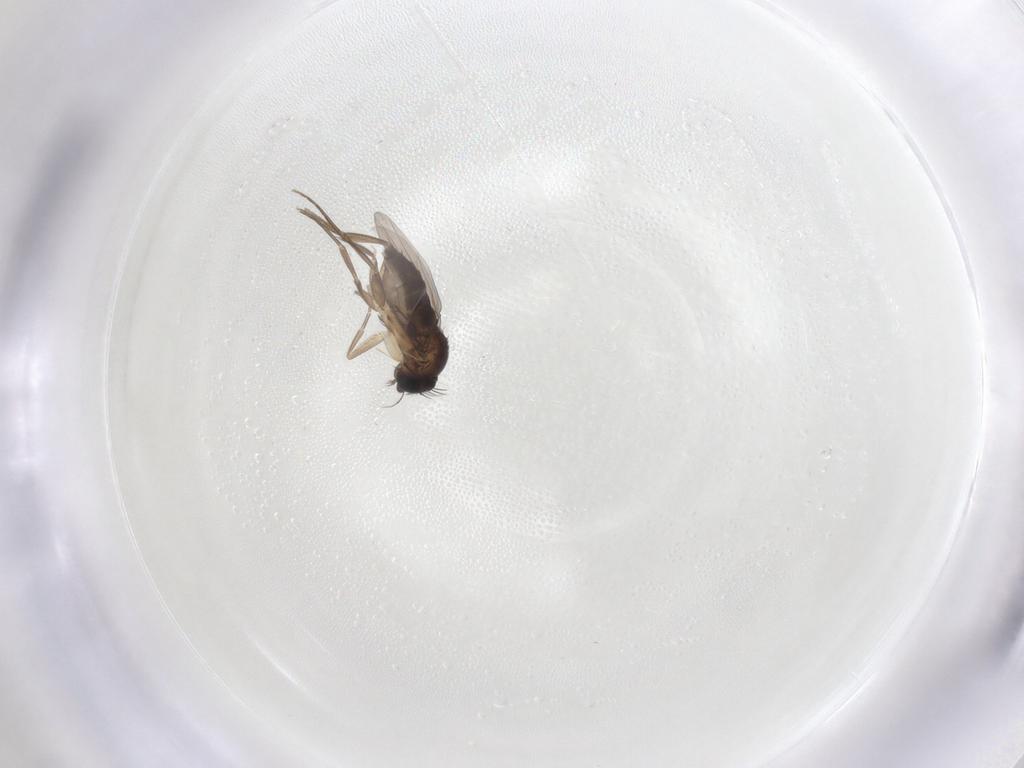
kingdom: Animalia
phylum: Arthropoda
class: Insecta
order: Diptera
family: Phoridae
